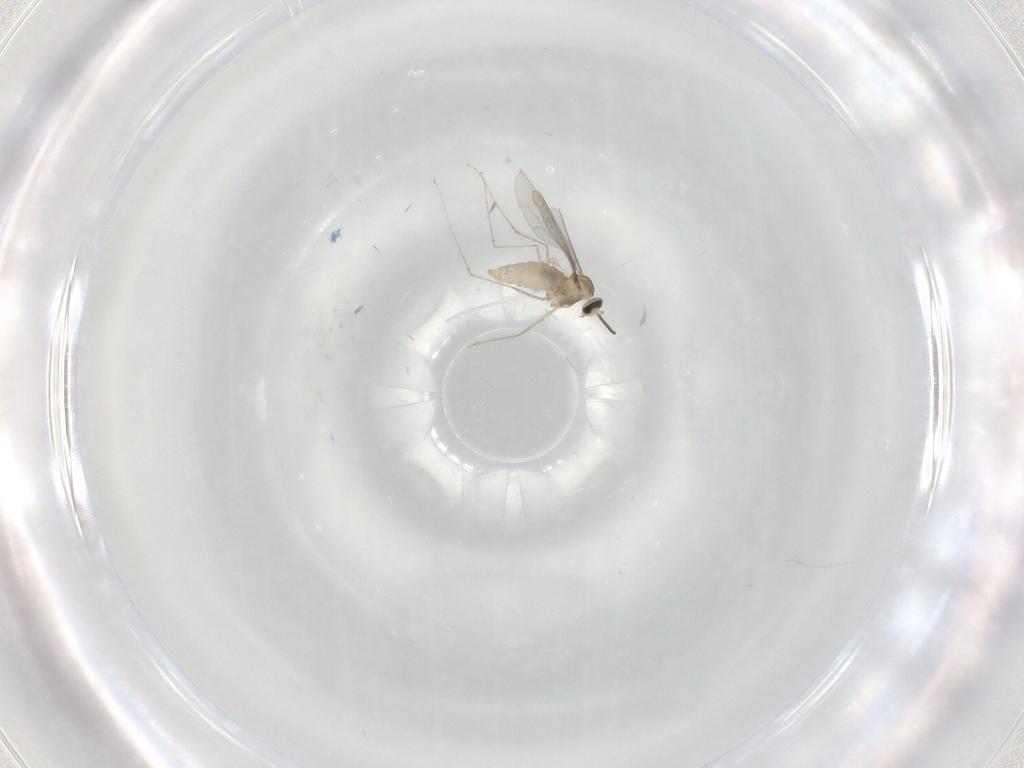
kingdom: Animalia
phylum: Arthropoda
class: Insecta
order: Diptera
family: Cecidomyiidae
